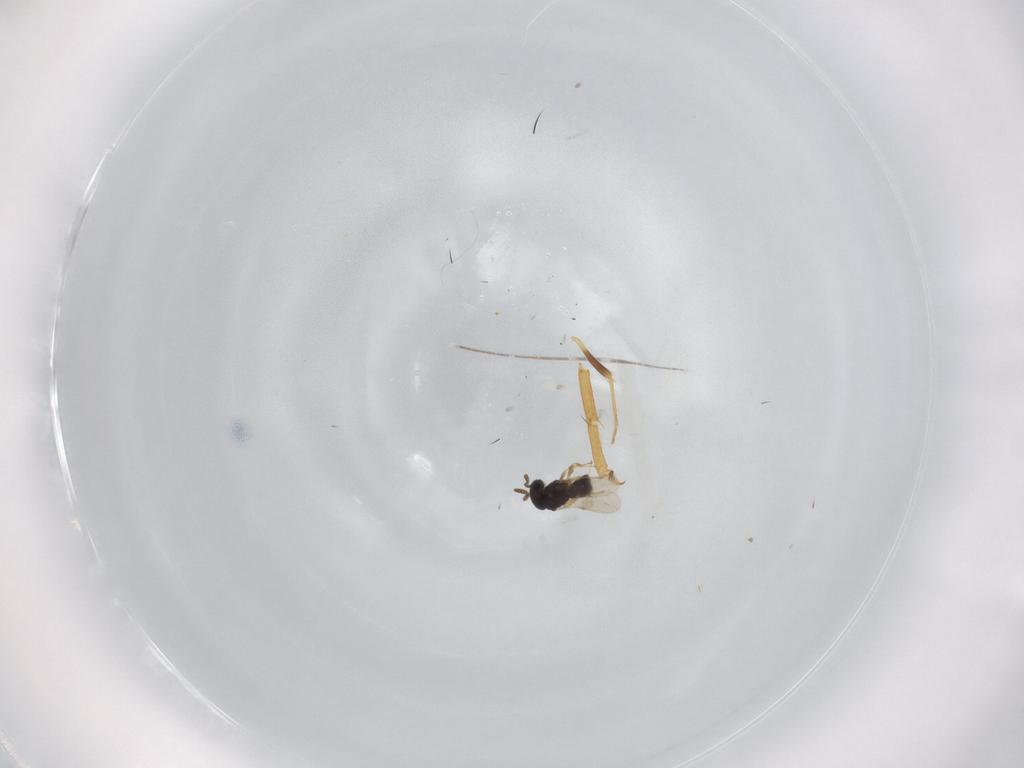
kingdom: Animalia
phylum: Arthropoda
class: Insecta
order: Hymenoptera
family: Scelionidae
